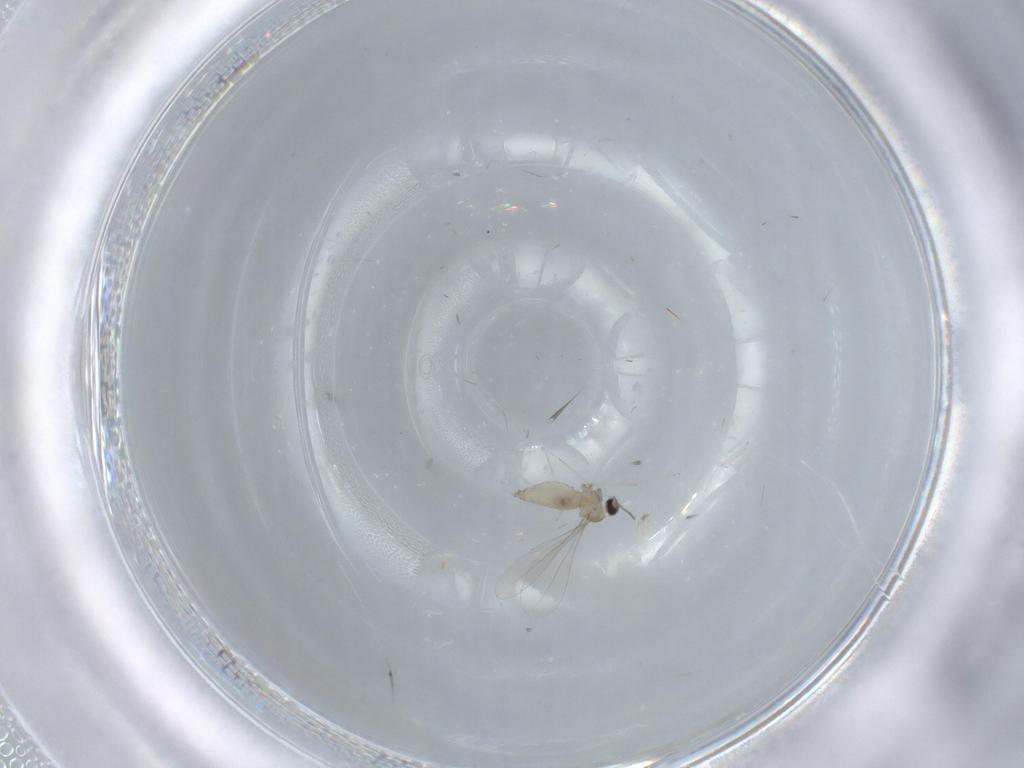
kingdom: Animalia
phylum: Arthropoda
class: Insecta
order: Diptera
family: Cecidomyiidae
